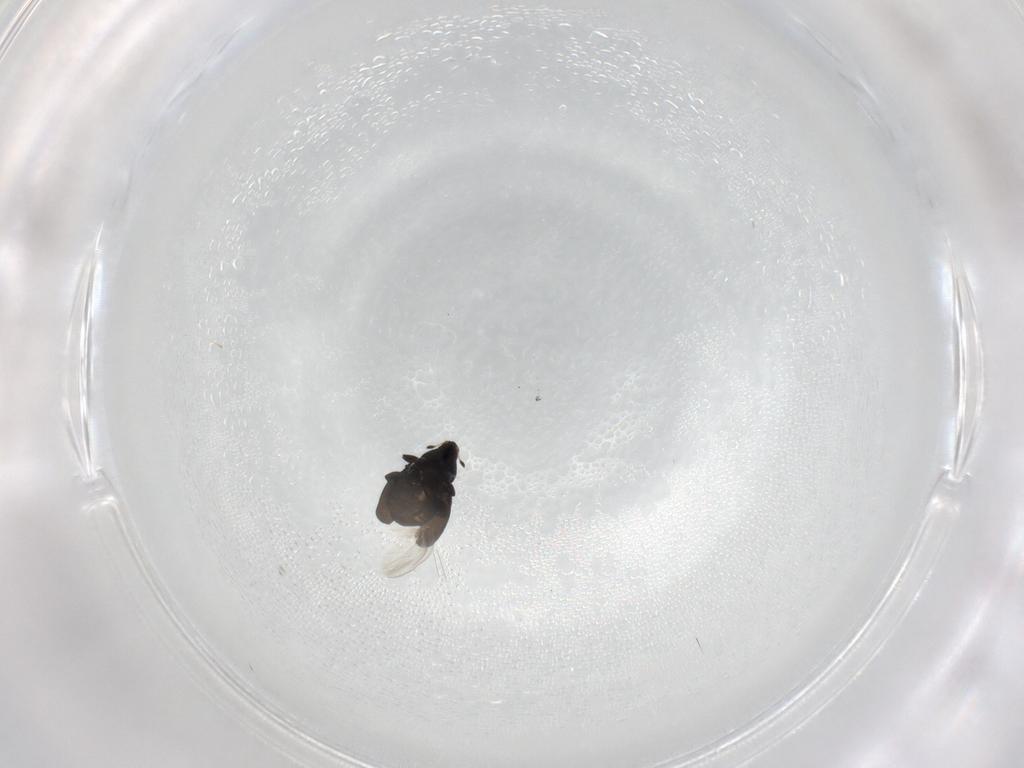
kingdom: Animalia
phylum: Arthropoda
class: Insecta
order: Coleoptera
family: Curculionidae
